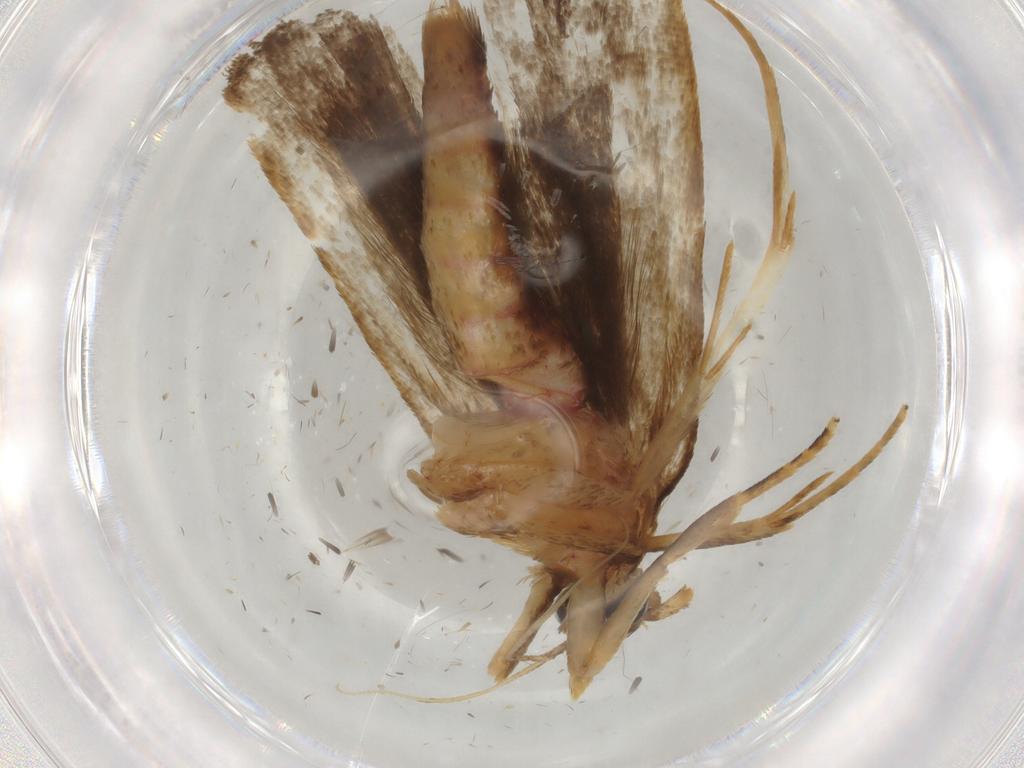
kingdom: Animalia
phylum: Arthropoda
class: Insecta
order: Lepidoptera
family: Autostichidae
